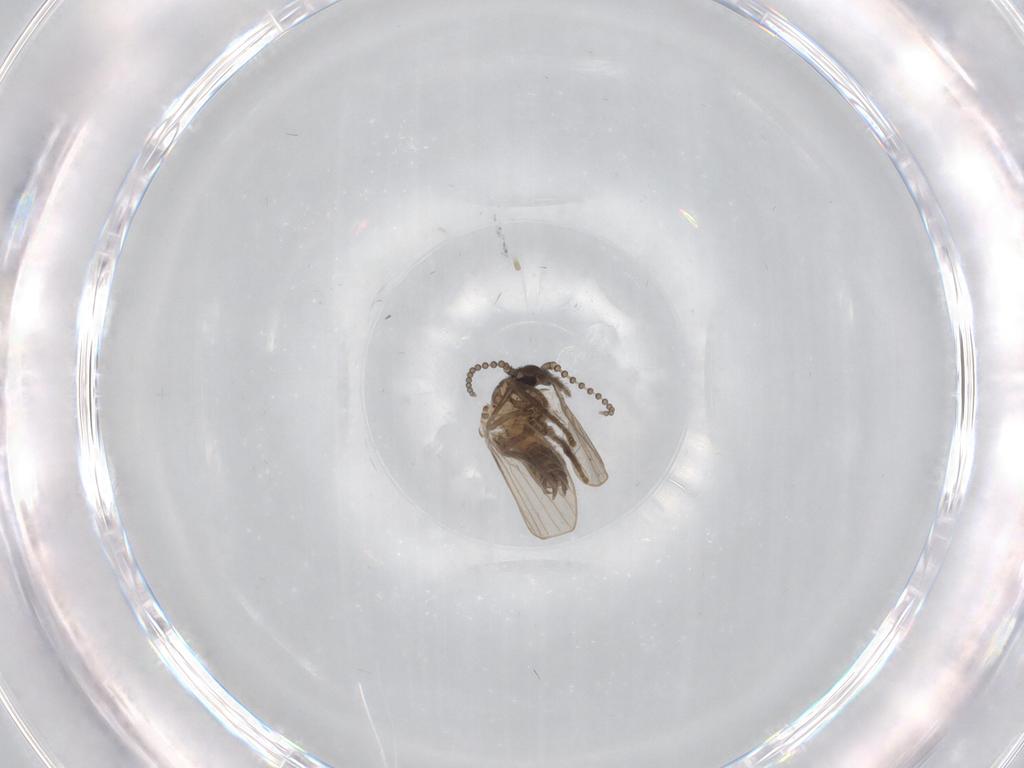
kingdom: Animalia
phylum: Arthropoda
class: Insecta
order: Diptera
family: Psychodidae
